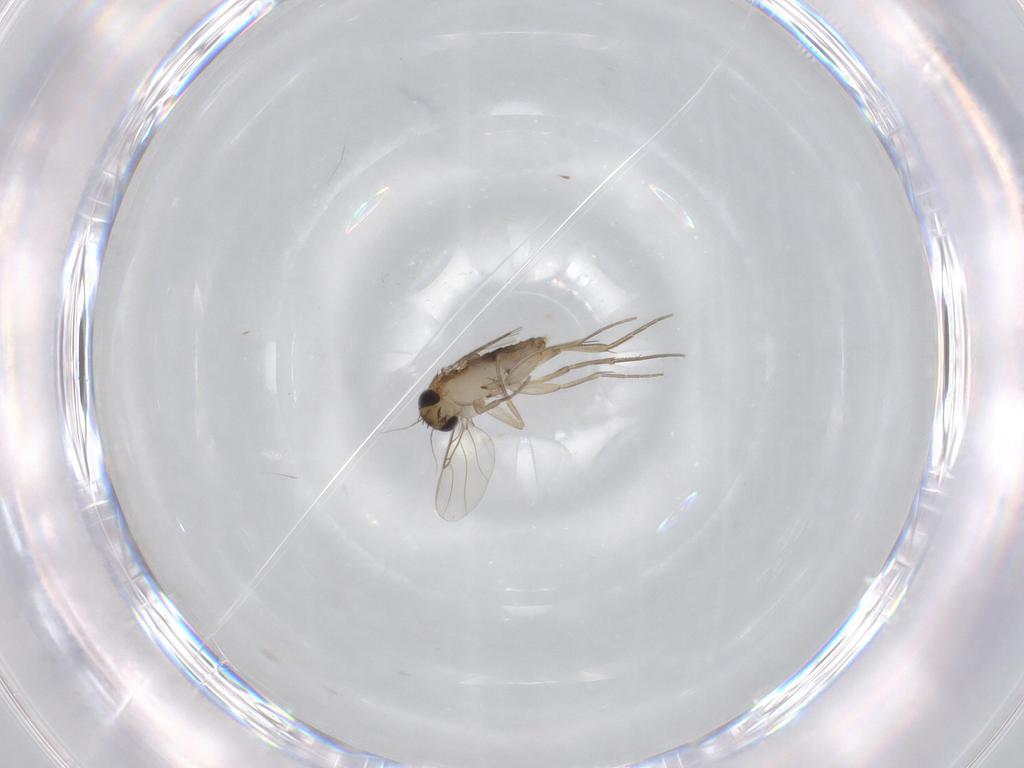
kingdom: Animalia
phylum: Arthropoda
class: Insecta
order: Diptera
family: Phoridae
